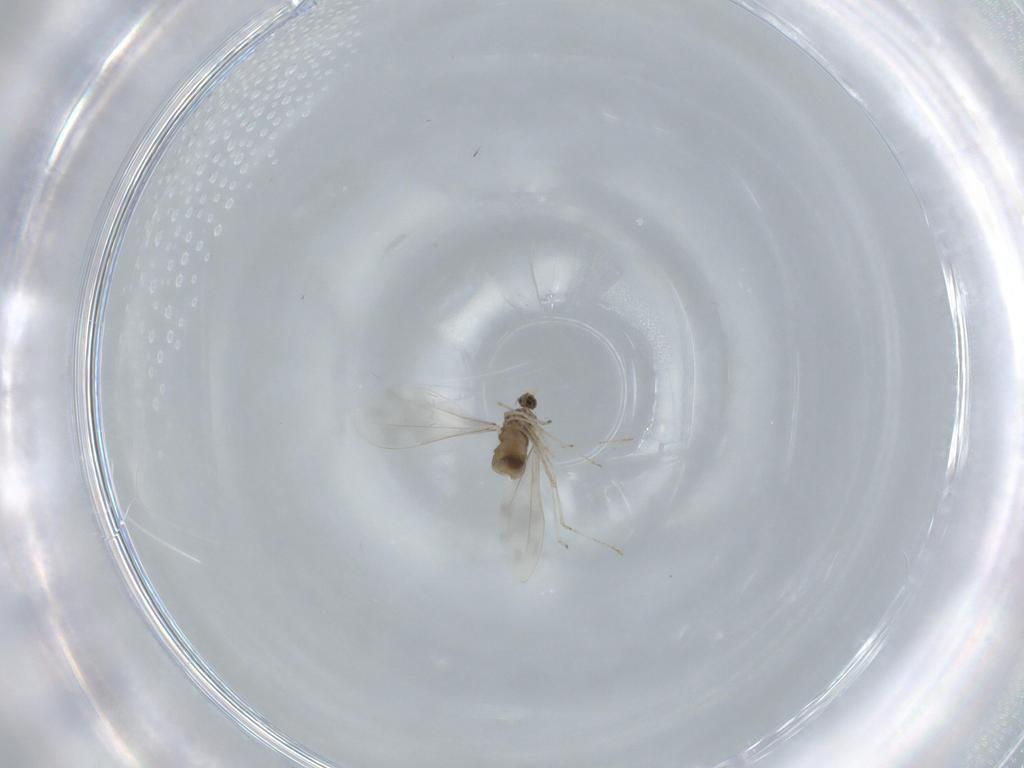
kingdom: Animalia
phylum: Arthropoda
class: Insecta
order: Diptera
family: Cecidomyiidae
